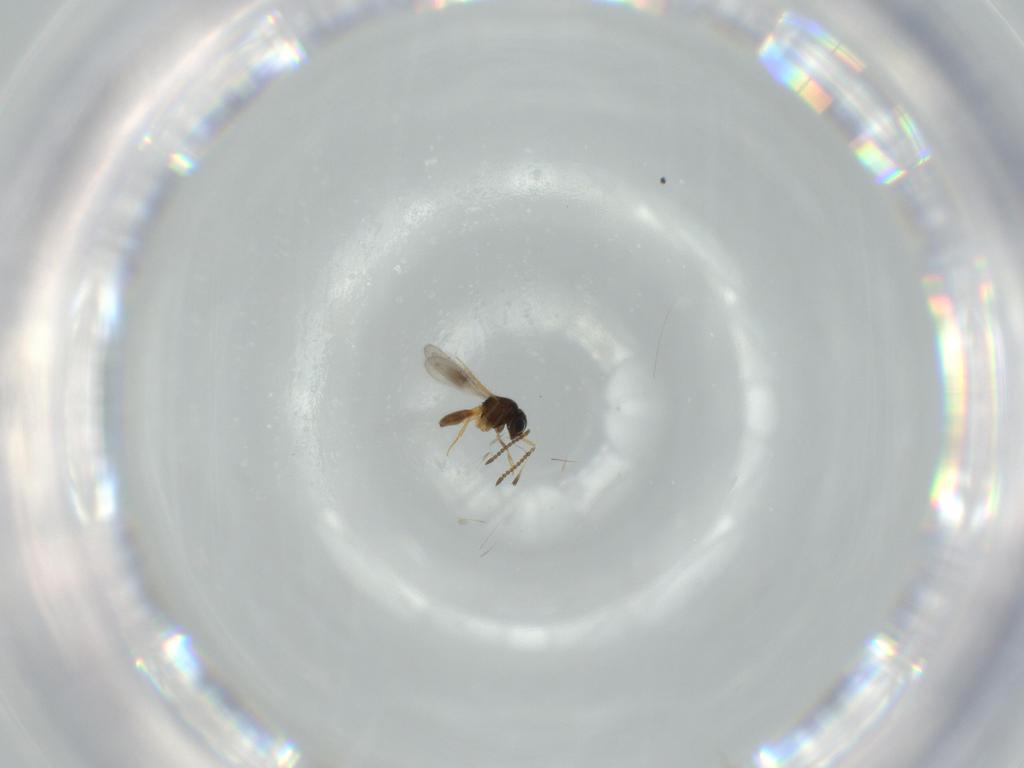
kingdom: Animalia
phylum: Arthropoda
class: Insecta
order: Hymenoptera
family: Scelionidae
